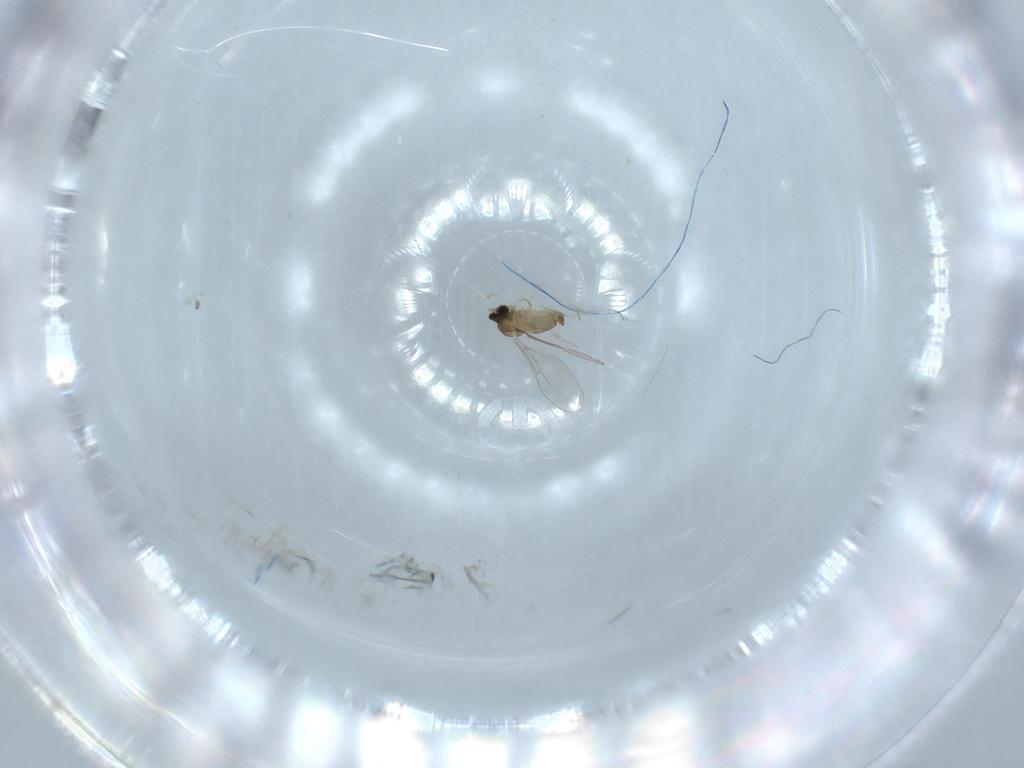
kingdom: Animalia
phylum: Arthropoda
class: Insecta
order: Diptera
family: Cecidomyiidae
